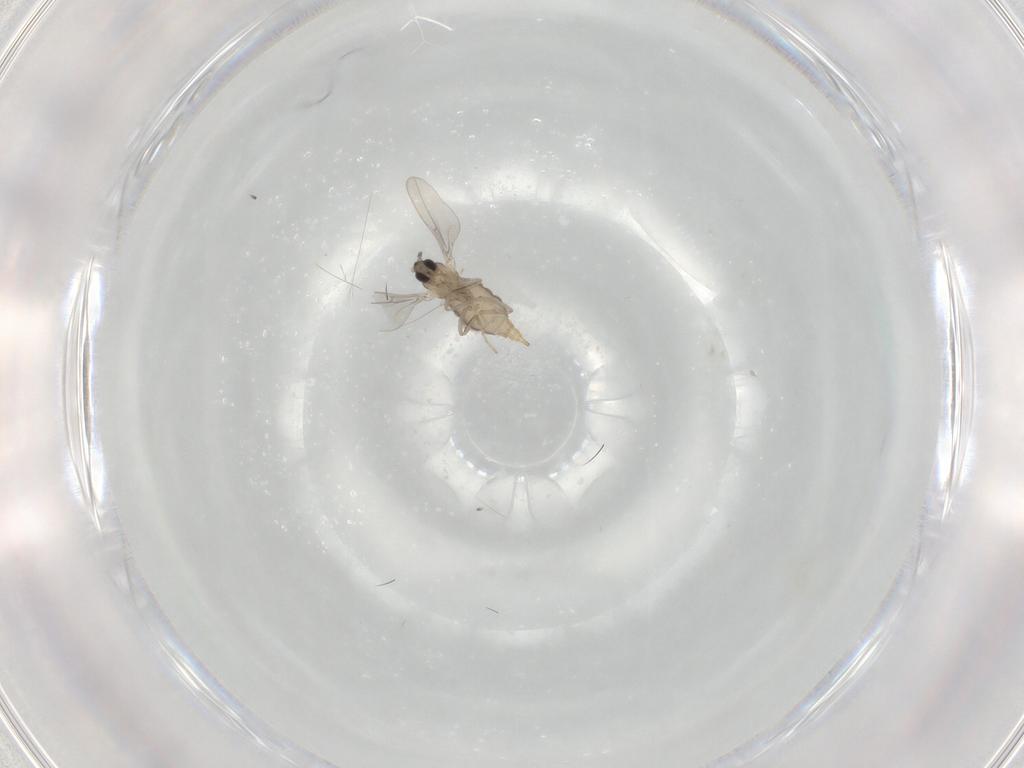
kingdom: Animalia
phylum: Arthropoda
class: Insecta
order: Diptera
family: Cecidomyiidae
